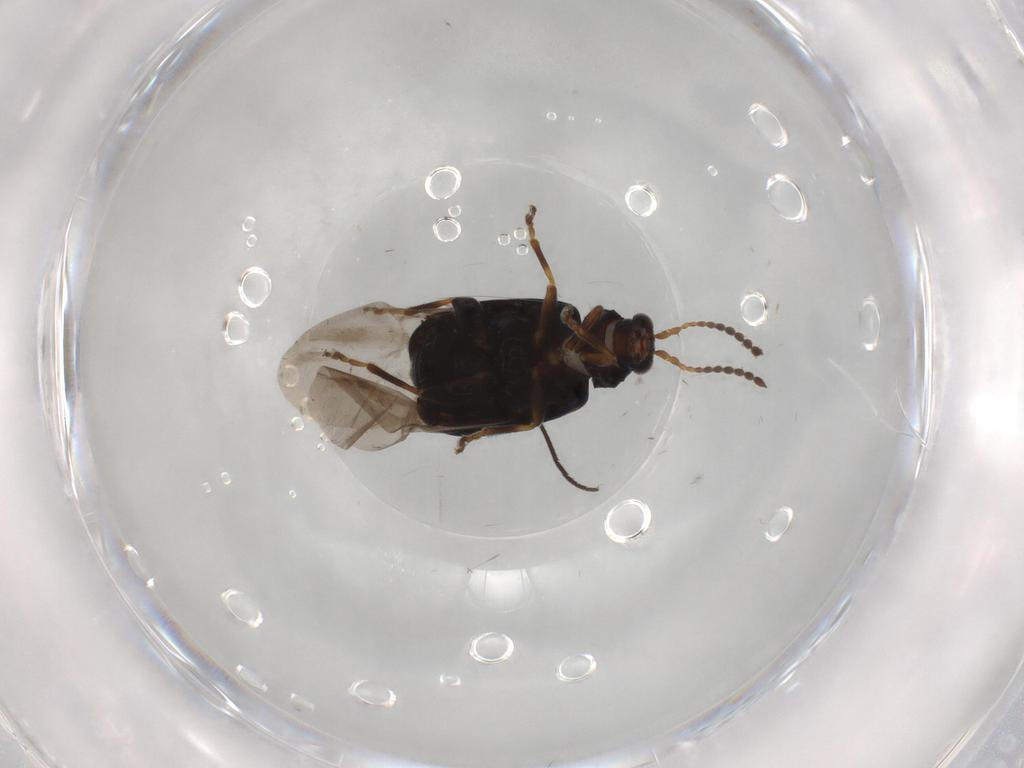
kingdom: Animalia
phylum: Arthropoda
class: Insecta
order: Coleoptera
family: Chrysomelidae
